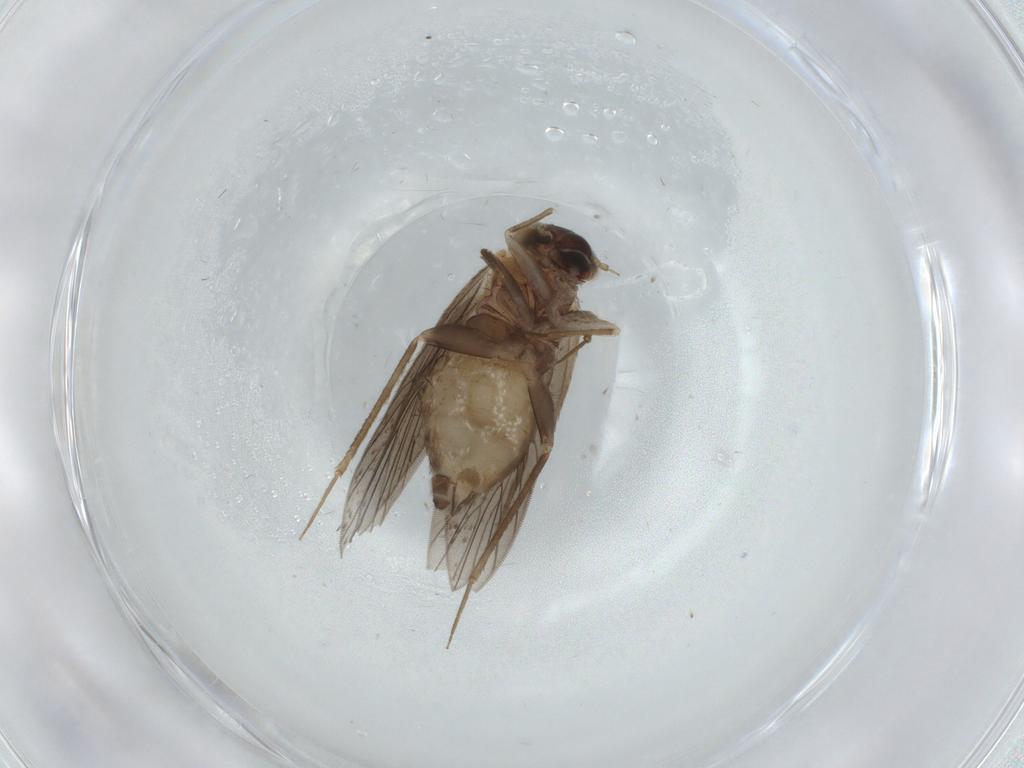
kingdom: Animalia
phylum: Arthropoda
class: Insecta
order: Psocodea
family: Lepidopsocidae
